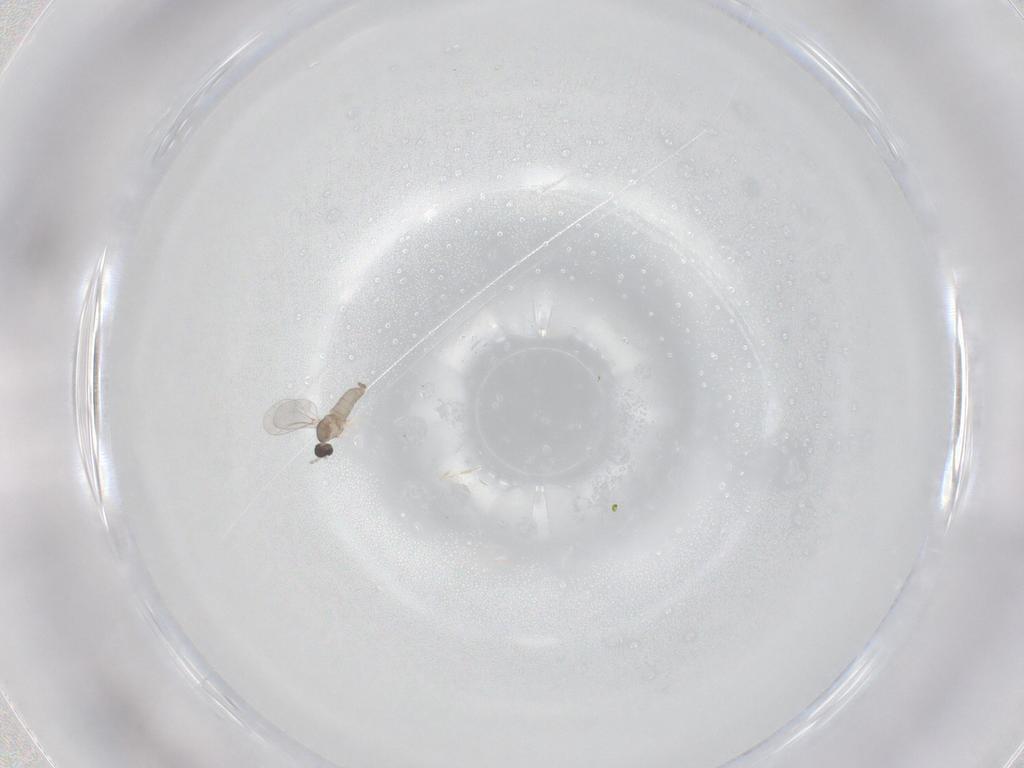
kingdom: Animalia
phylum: Arthropoda
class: Insecta
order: Diptera
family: Cecidomyiidae
